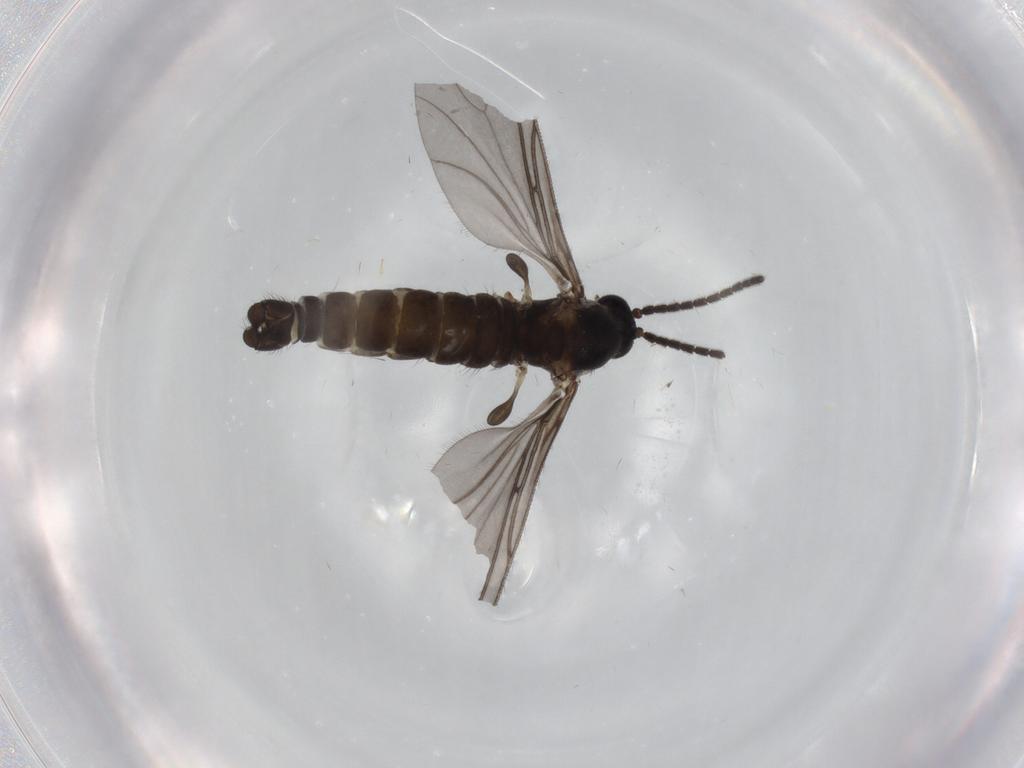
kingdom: Animalia
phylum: Arthropoda
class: Insecta
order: Diptera
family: Sciaridae
